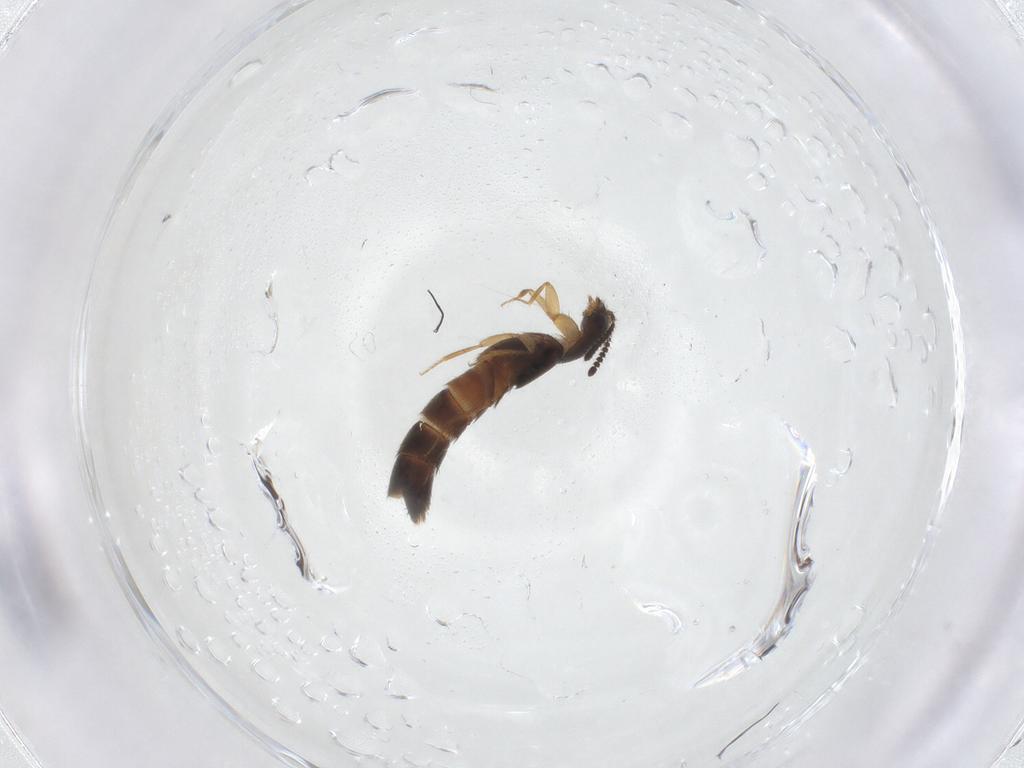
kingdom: Animalia
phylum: Arthropoda
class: Insecta
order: Coleoptera
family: Staphylinidae
